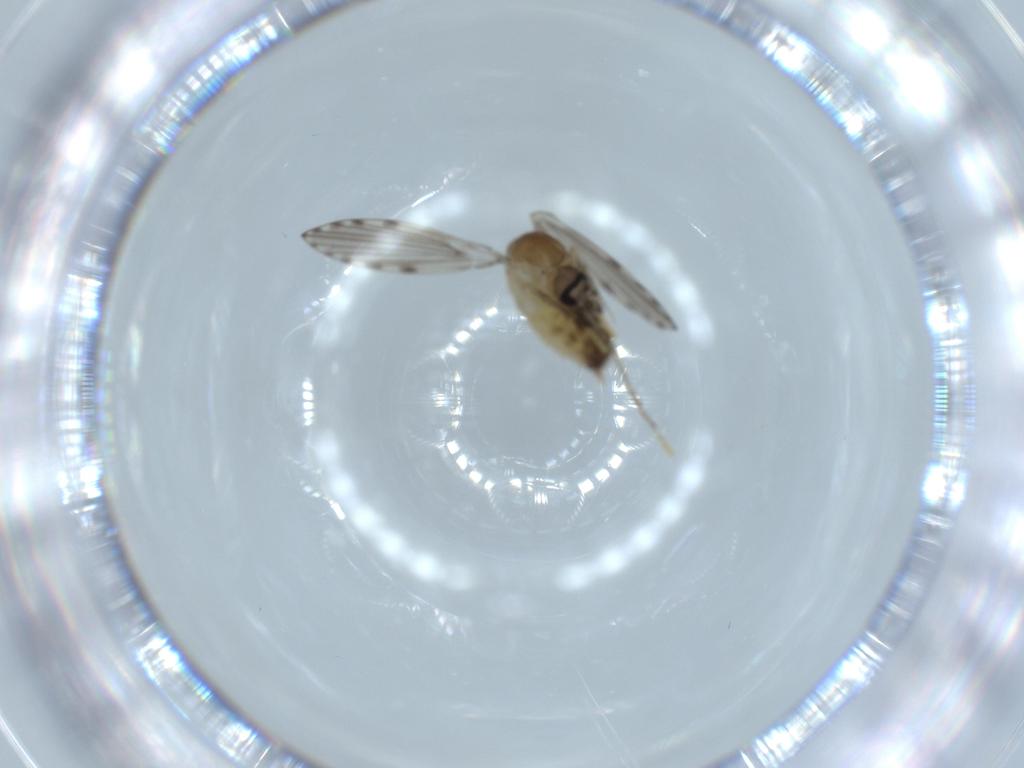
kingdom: Animalia
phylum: Arthropoda
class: Insecta
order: Diptera
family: Psychodidae
